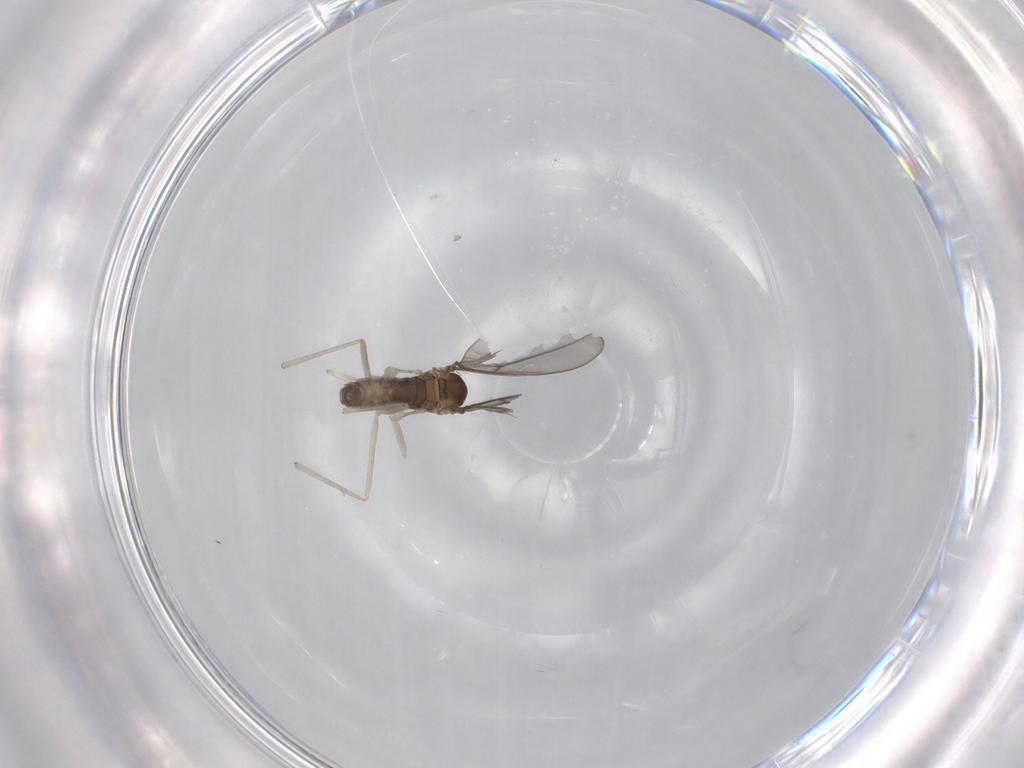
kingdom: Animalia
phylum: Arthropoda
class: Insecta
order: Diptera
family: Cecidomyiidae
